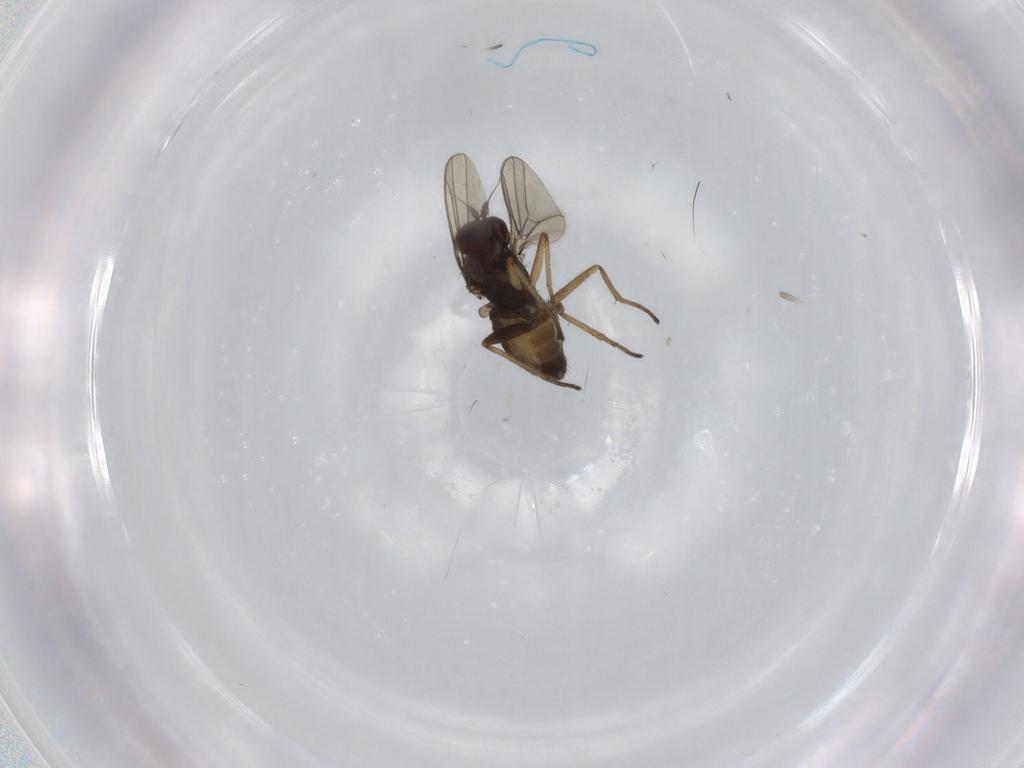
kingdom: Animalia
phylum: Arthropoda
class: Insecta
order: Diptera
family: Dolichopodidae
